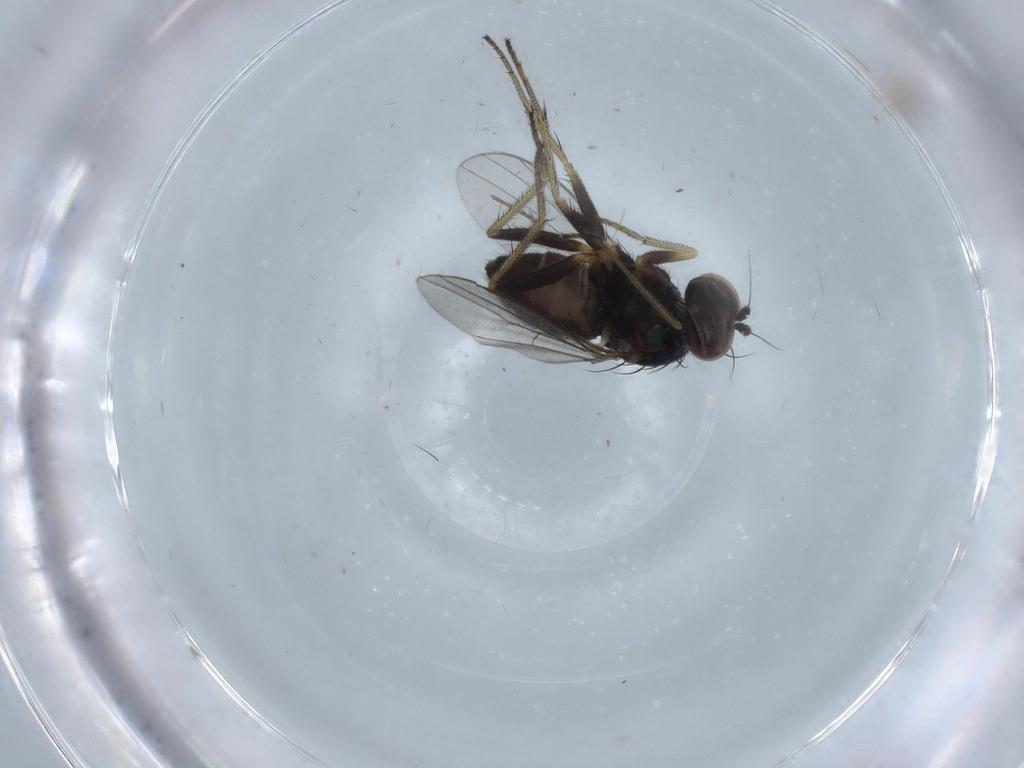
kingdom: Animalia
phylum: Arthropoda
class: Insecta
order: Diptera
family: Ceratopogonidae
